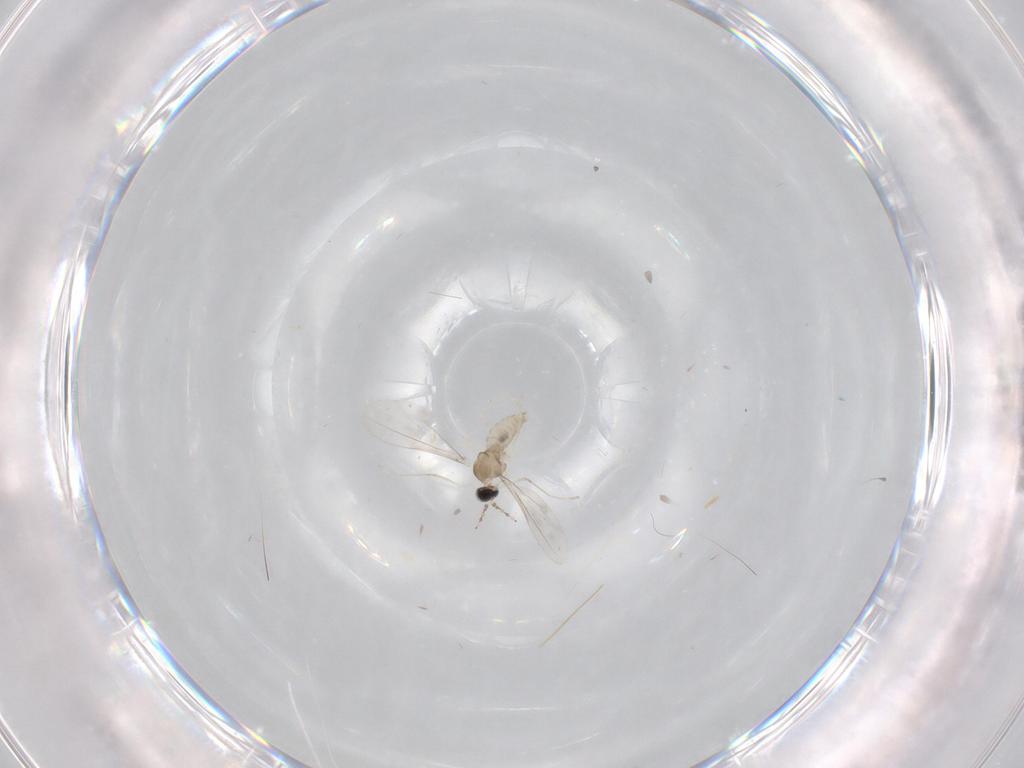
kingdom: Animalia
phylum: Arthropoda
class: Insecta
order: Diptera
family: Cecidomyiidae
